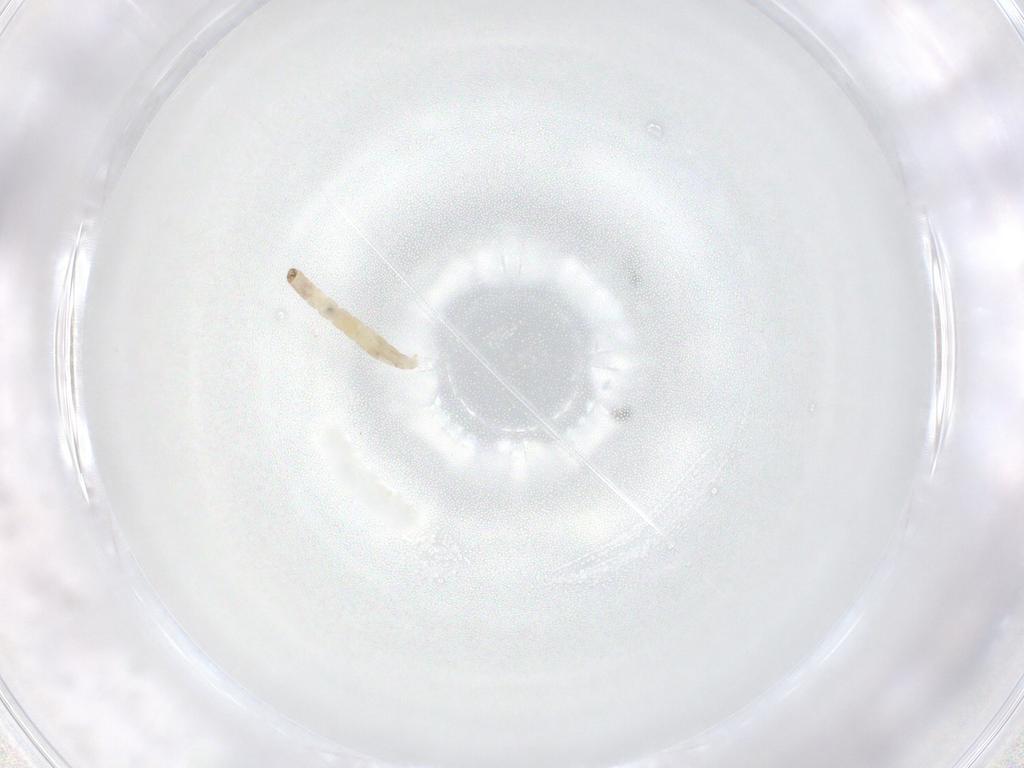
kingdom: Animalia
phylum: Arthropoda
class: Insecta
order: Diptera
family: Chironomidae
